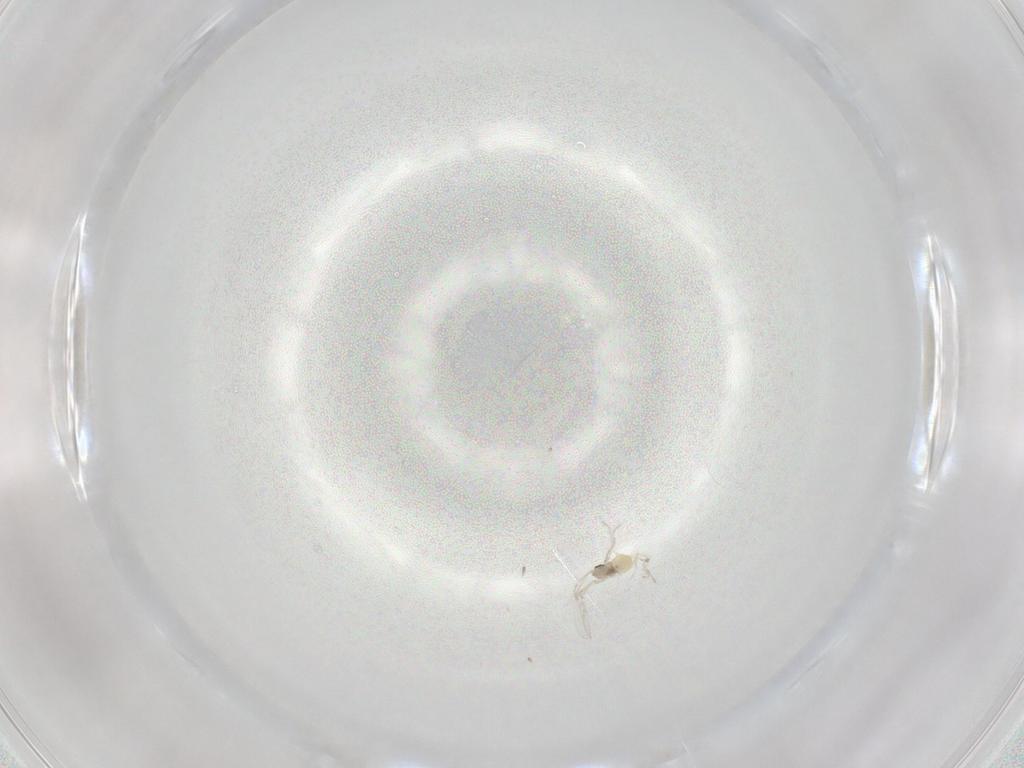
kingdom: Animalia
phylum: Arthropoda
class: Insecta
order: Diptera
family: Cecidomyiidae
